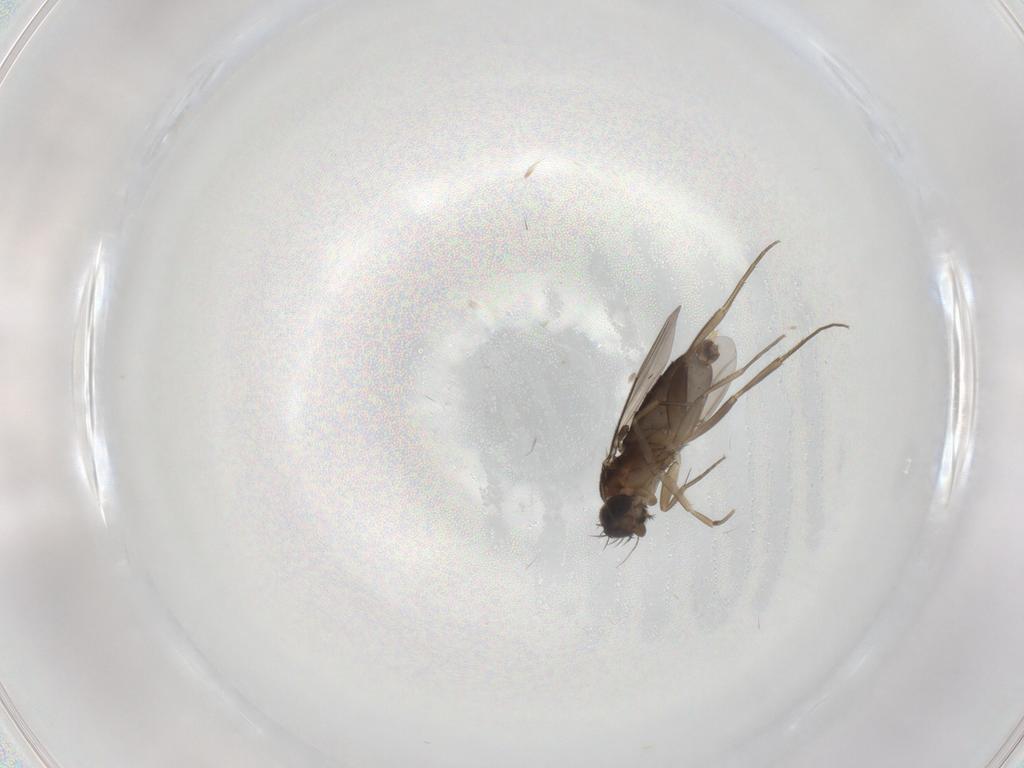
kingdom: Animalia
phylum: Arthropoda
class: Insecta
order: Diptera
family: Phoridae
